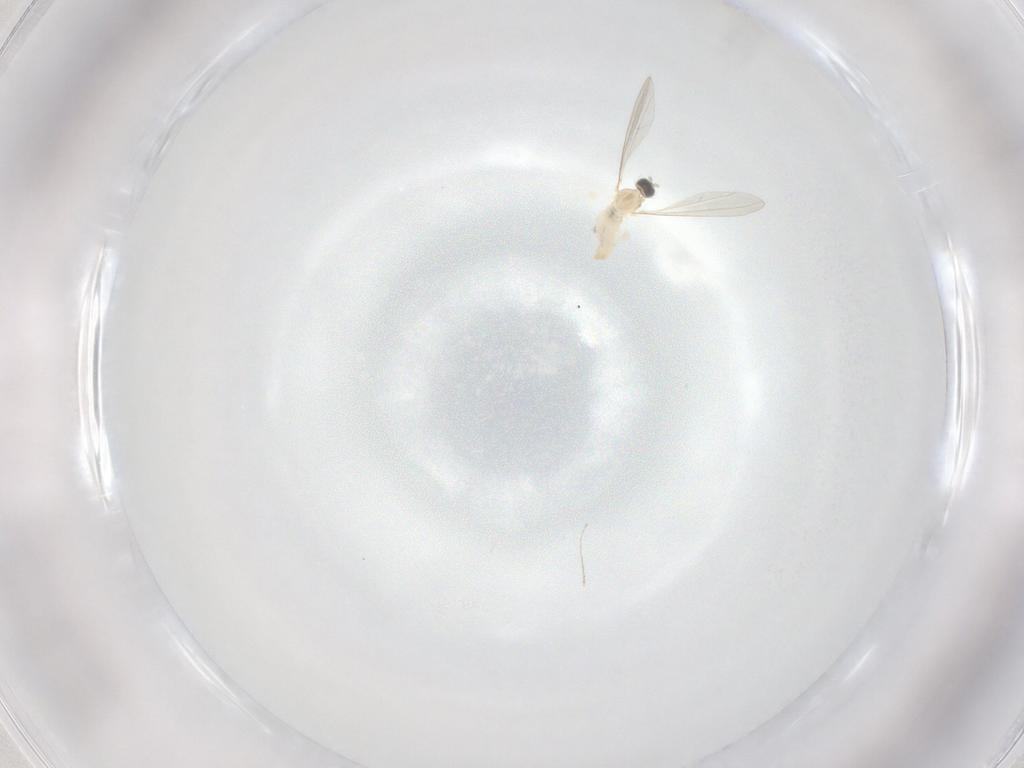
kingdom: Animalia
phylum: Arthropoda
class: Insecta
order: Diptera
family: Cecidomyiidae
